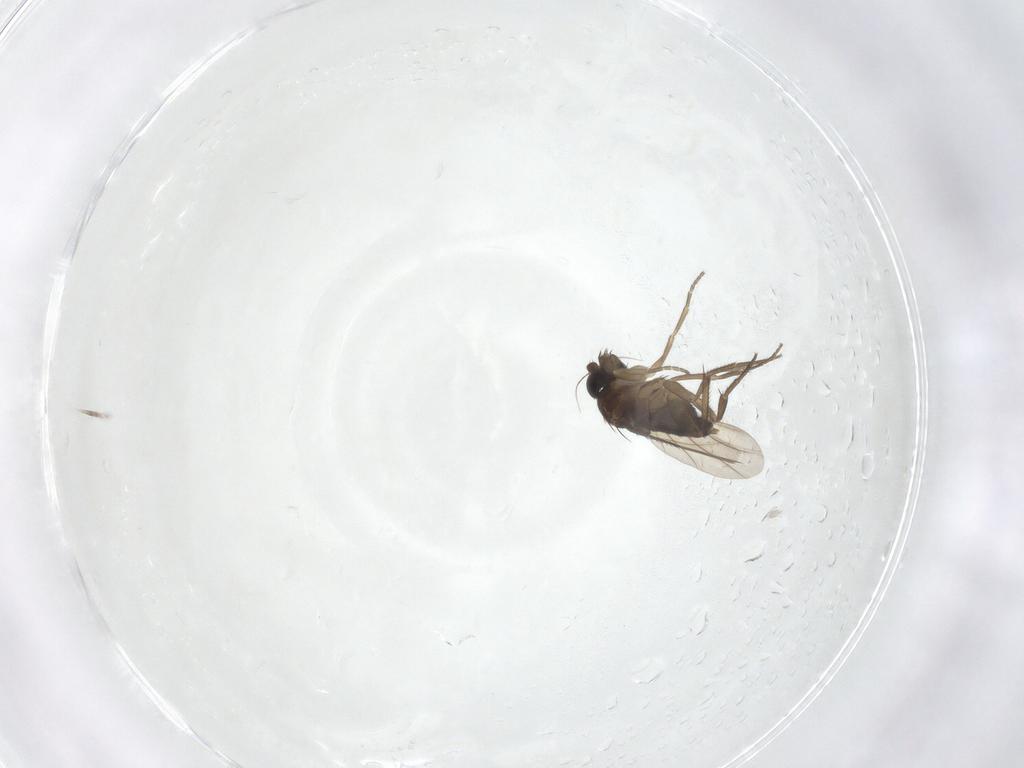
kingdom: Animalia
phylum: Arthropoda
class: Insecta
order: Diptera
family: Phoridae
